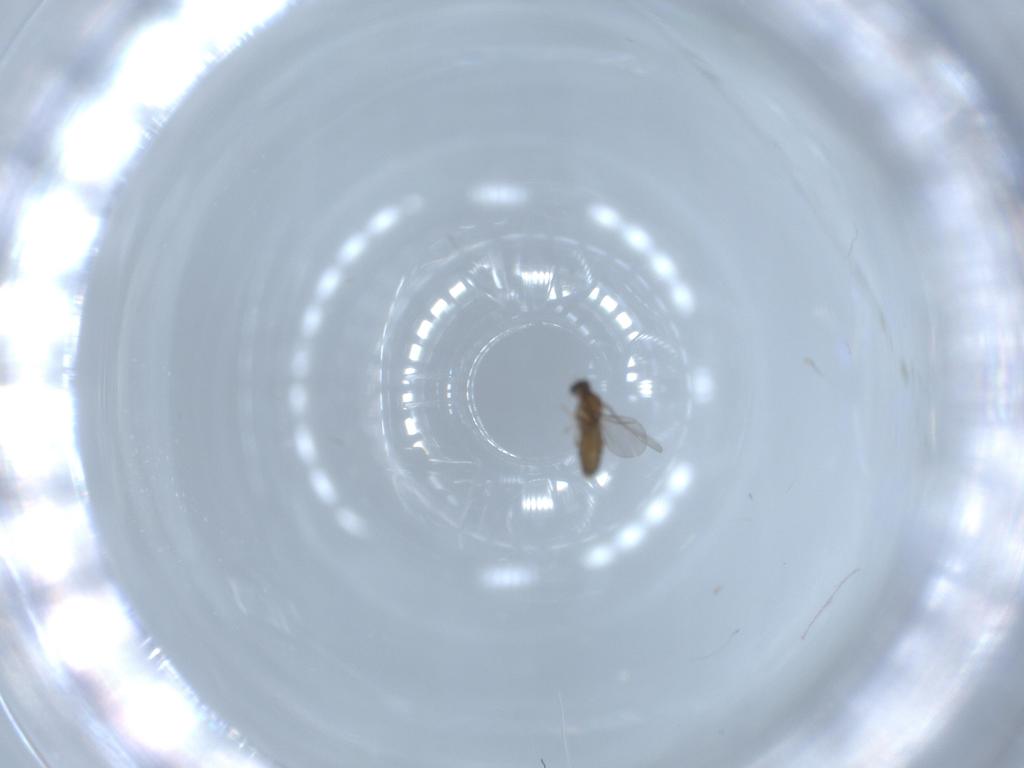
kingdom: Animalia
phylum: Arthropoda
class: Insecta
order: Diptera
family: Cecidomyiidae
